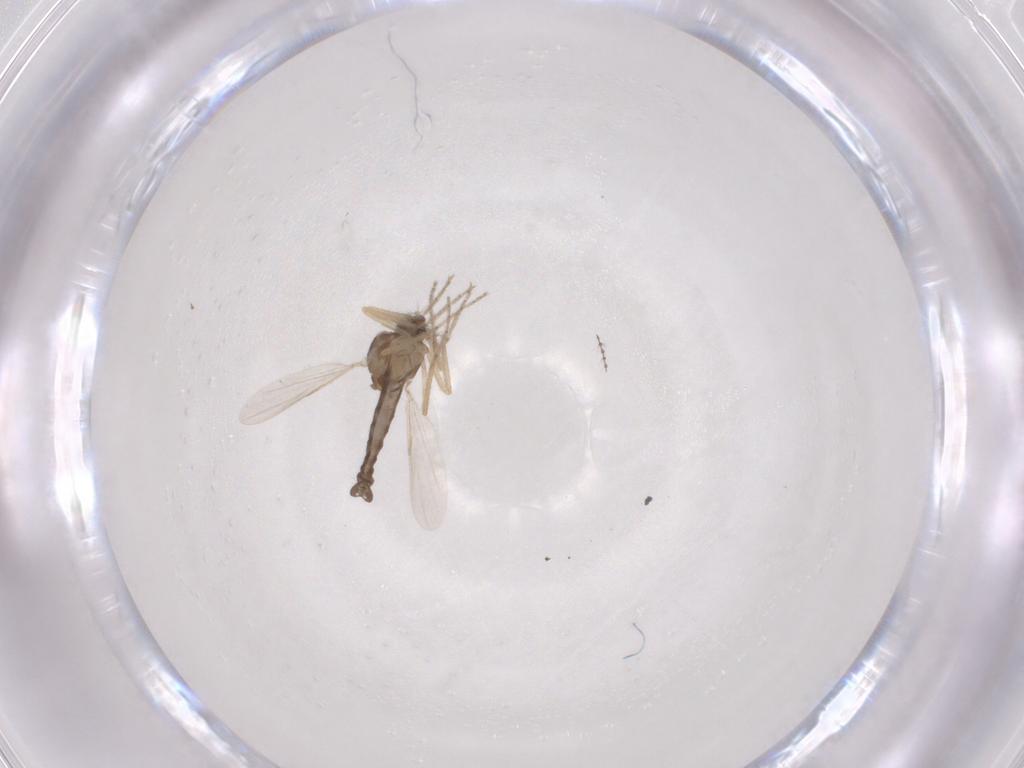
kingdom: Animalia
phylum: Arthropoda
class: Insecta
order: Diptera
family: Ceratopogonidae
